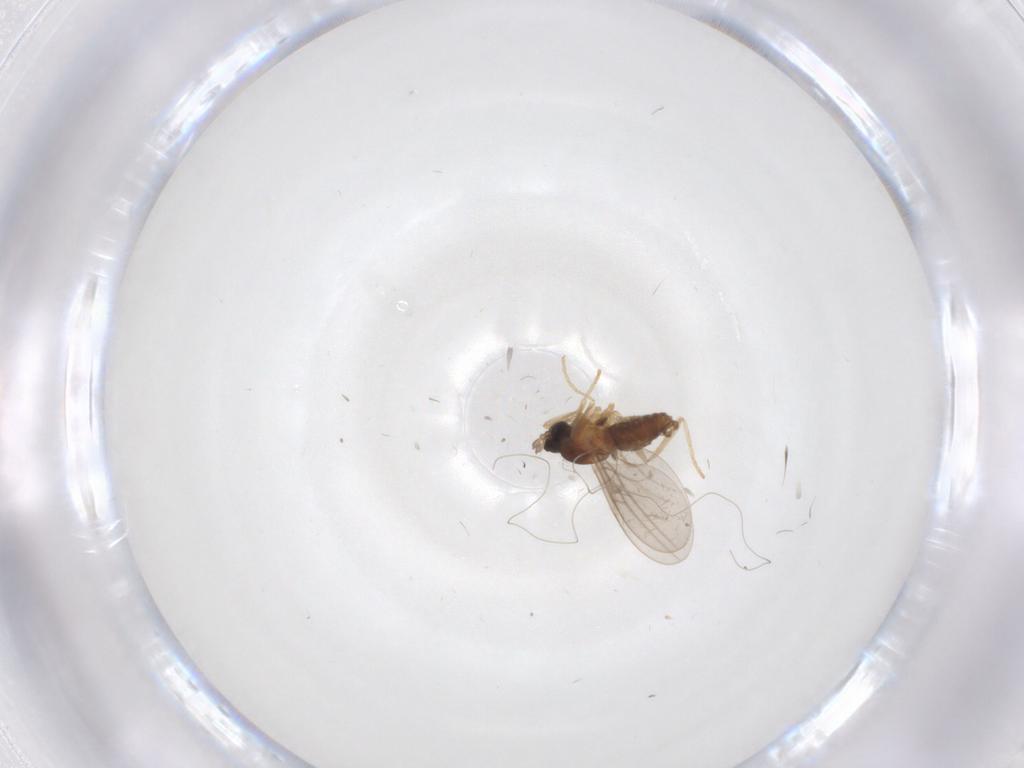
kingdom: Animalia
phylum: Arthropoda
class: Insecta
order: Diptera
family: Cecidomyiidae
